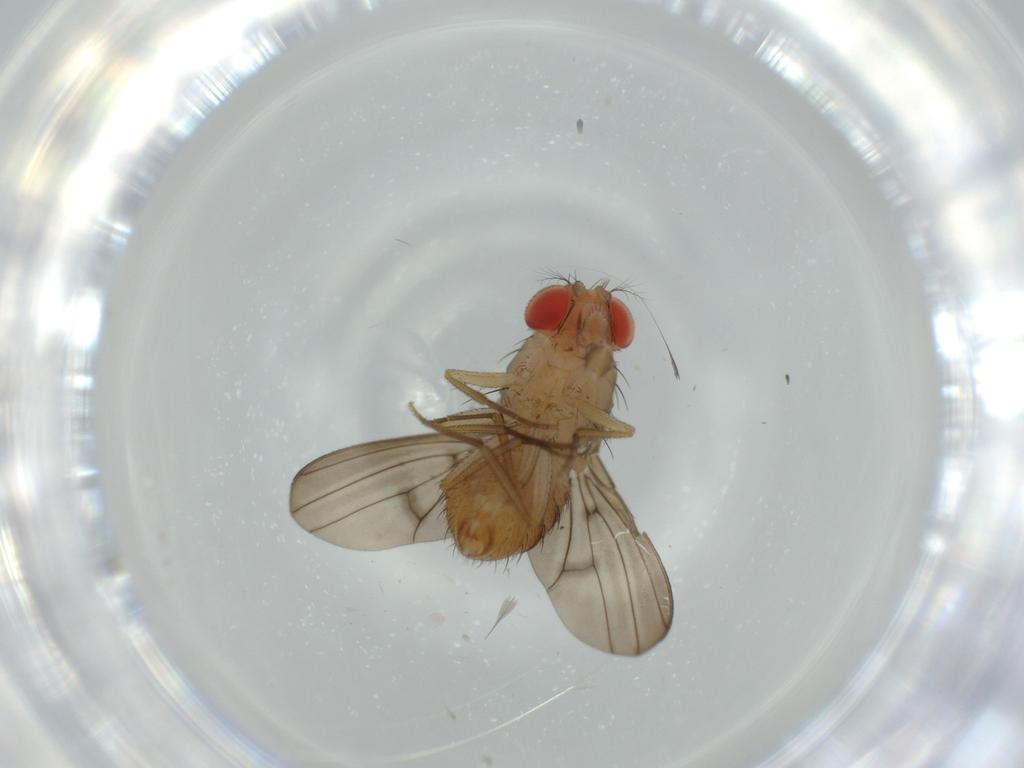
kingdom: Animalia
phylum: Arthropoda
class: Insecta
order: Diptera
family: Drosophilidae
